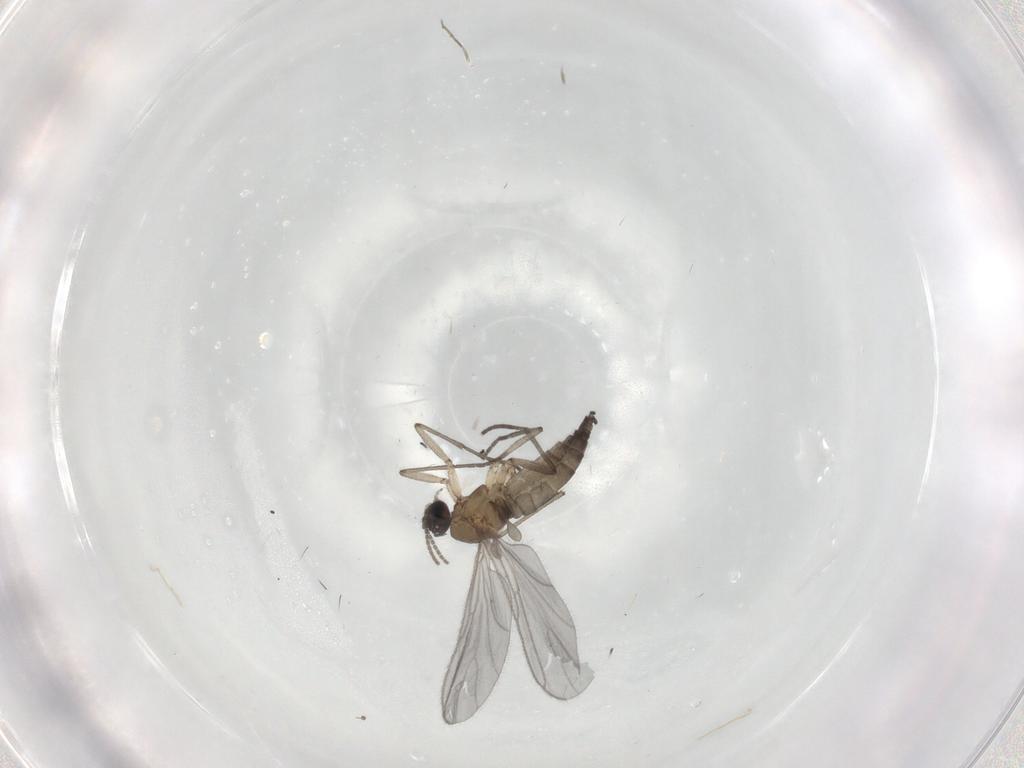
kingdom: Animalia
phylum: Arthropoda
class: Insecta
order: Diptera
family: Sciaridae
